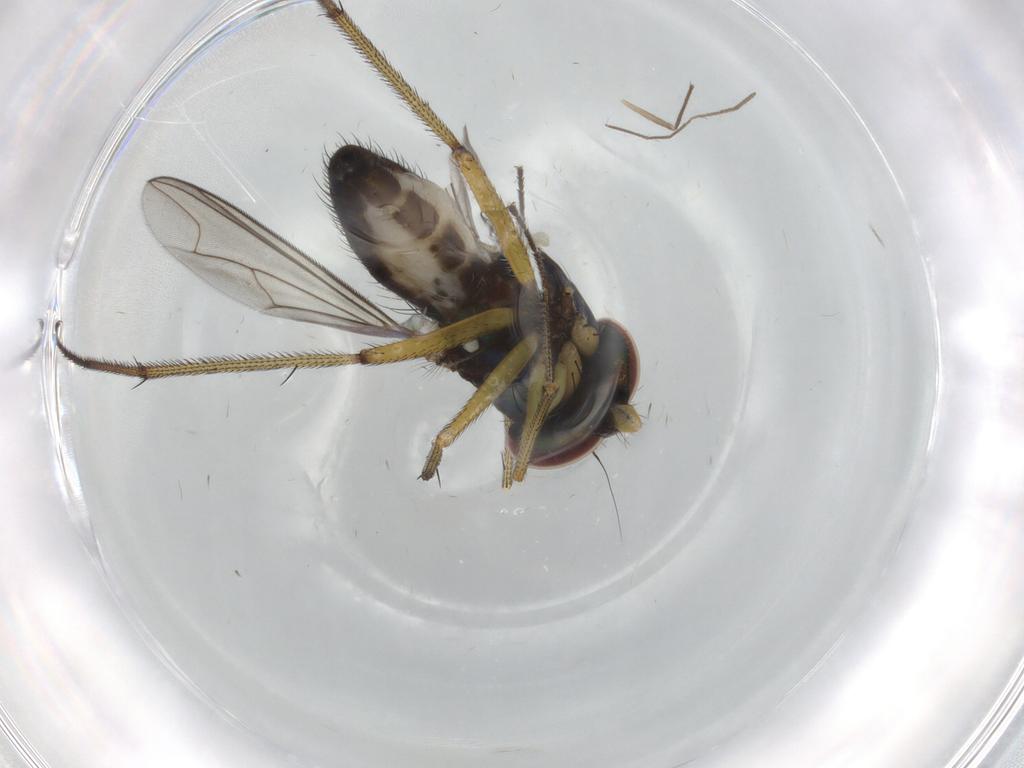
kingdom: Animalia
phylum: Arthropoda
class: Insecta
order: Diptera
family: Dolichopodidae
